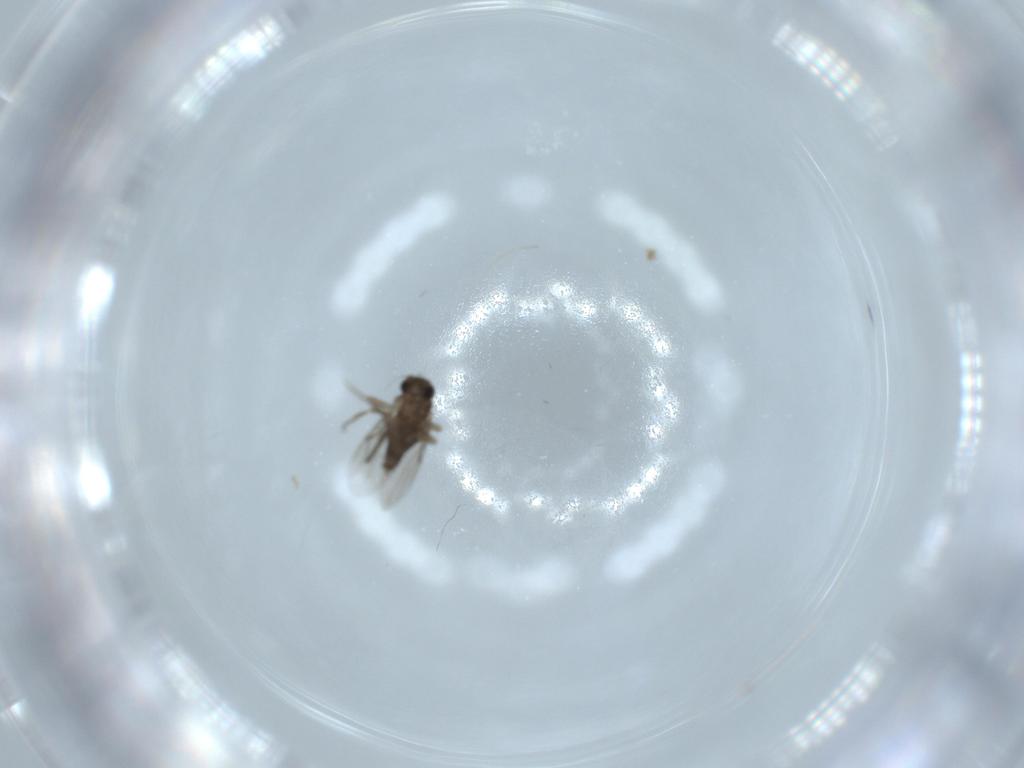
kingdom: Animalia
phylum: Arthropoda
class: Insecta
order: Diptera
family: Phoridae
